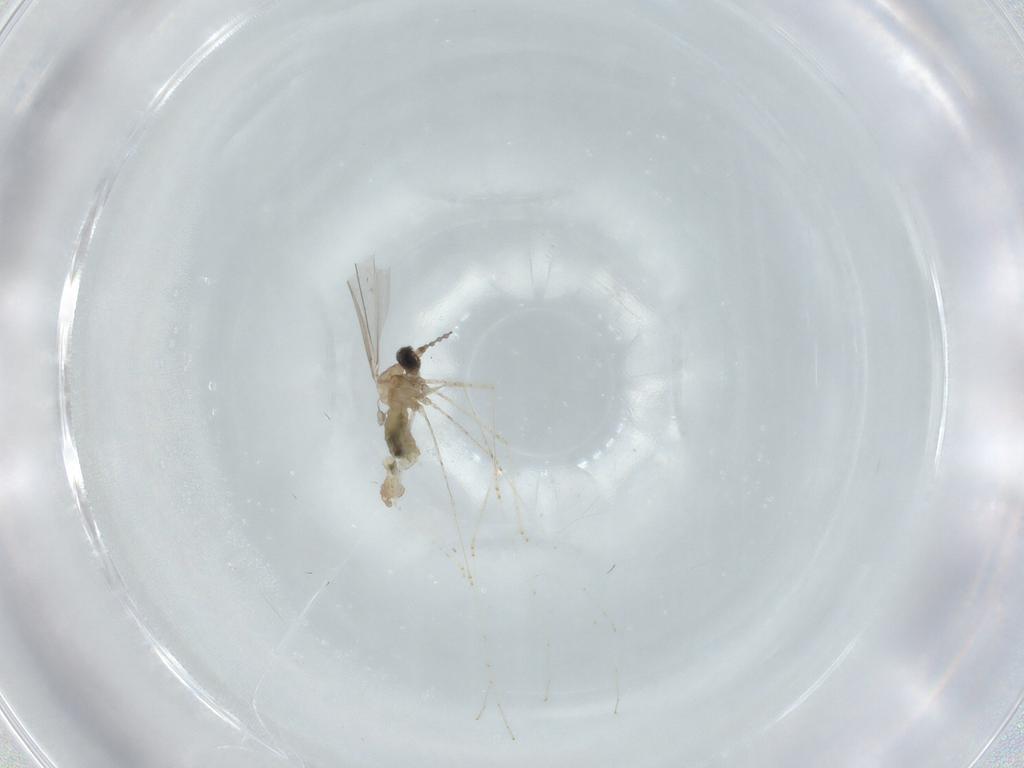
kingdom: Animalia
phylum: Arthropoda
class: Insecta
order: Diptera
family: Cecidomyiidae
